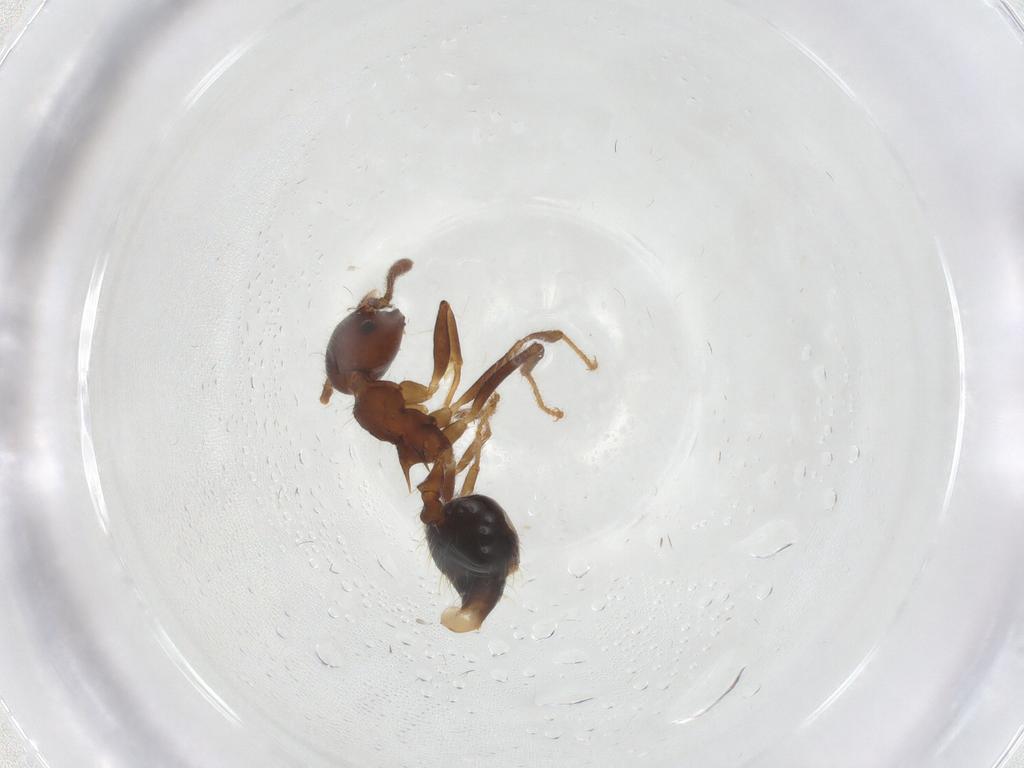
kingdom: Animalia
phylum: Arthropoda
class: Insecta
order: Hymenoptera
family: Formicidae
